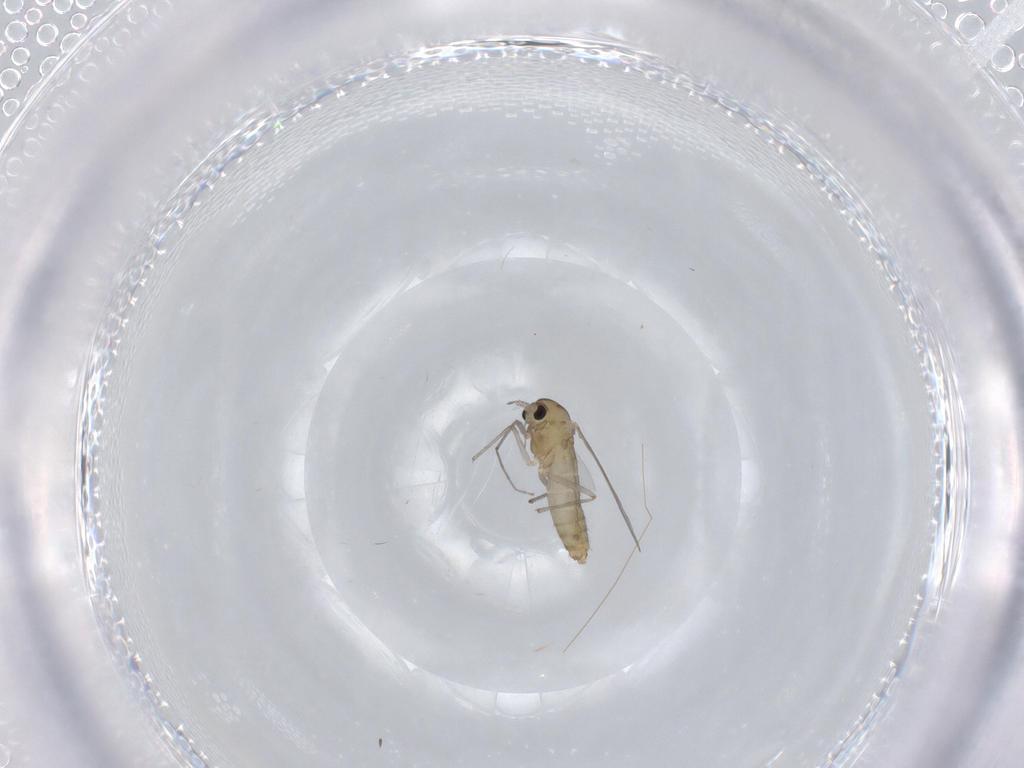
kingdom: Animalia
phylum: Arthropoda
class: Insecta
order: Diptera
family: Chironomidae
